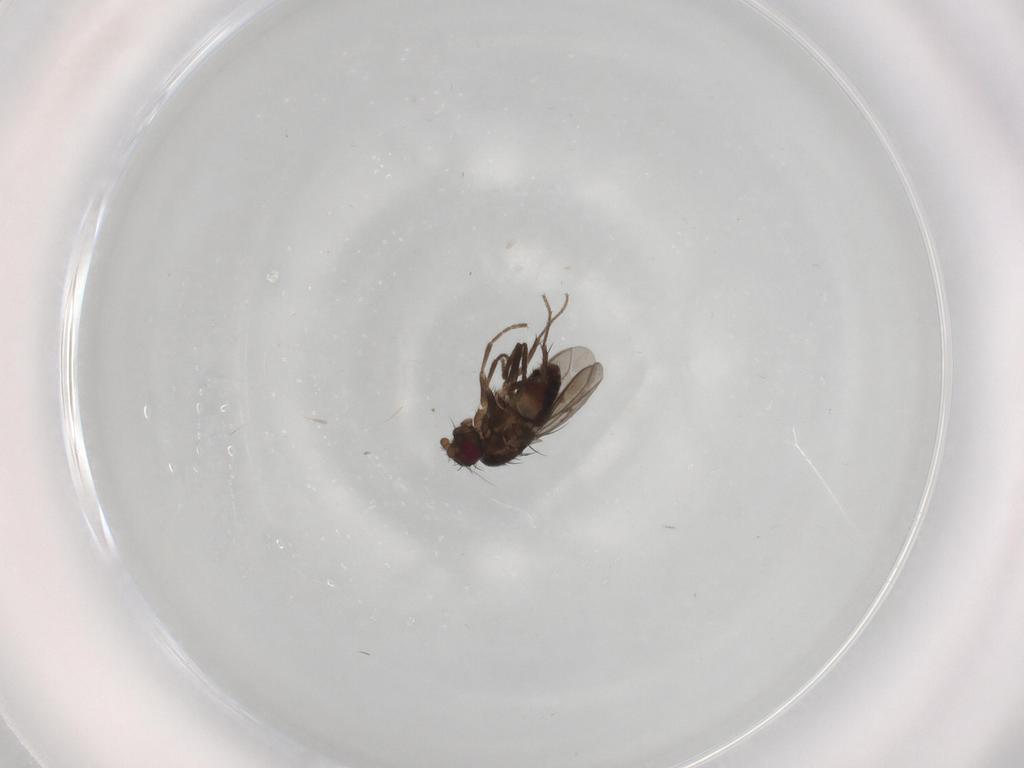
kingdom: Animalia
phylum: Arthropoda
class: Insecta
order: Diptera
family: Sphaeroceridae
